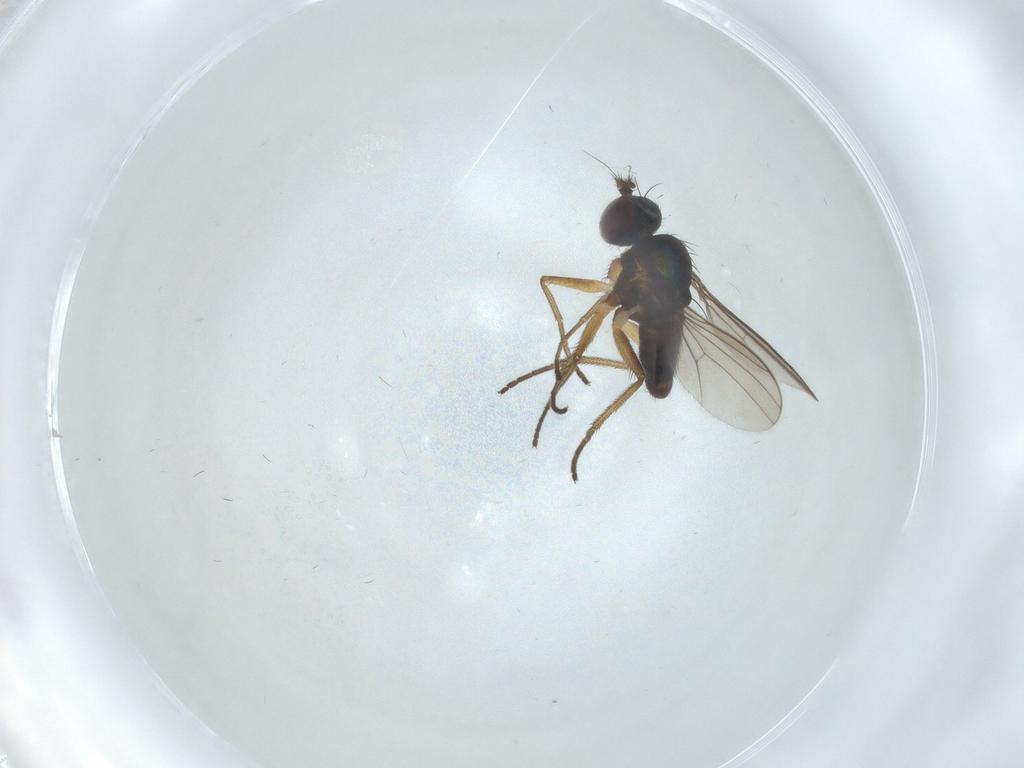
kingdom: Animalia
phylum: Arthropoda
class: Insecta
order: Diptera
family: Dolichopodidae
